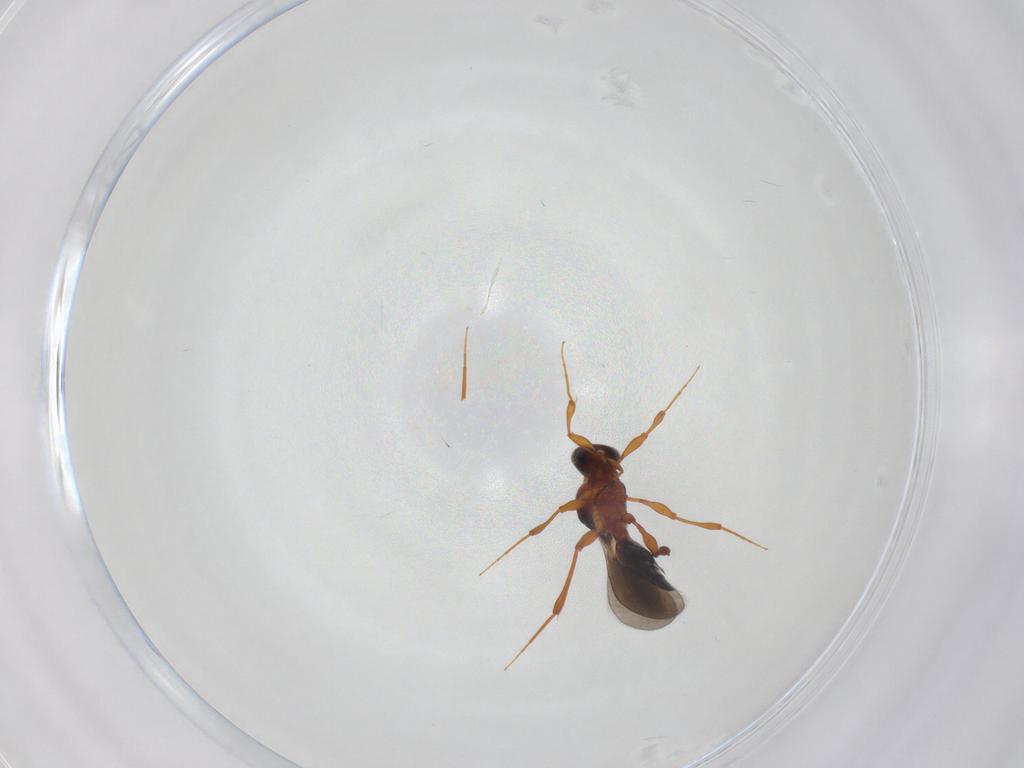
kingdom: Animalia
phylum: Arthropoda
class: Insecta
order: Hymenoptera
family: Platygastridae
